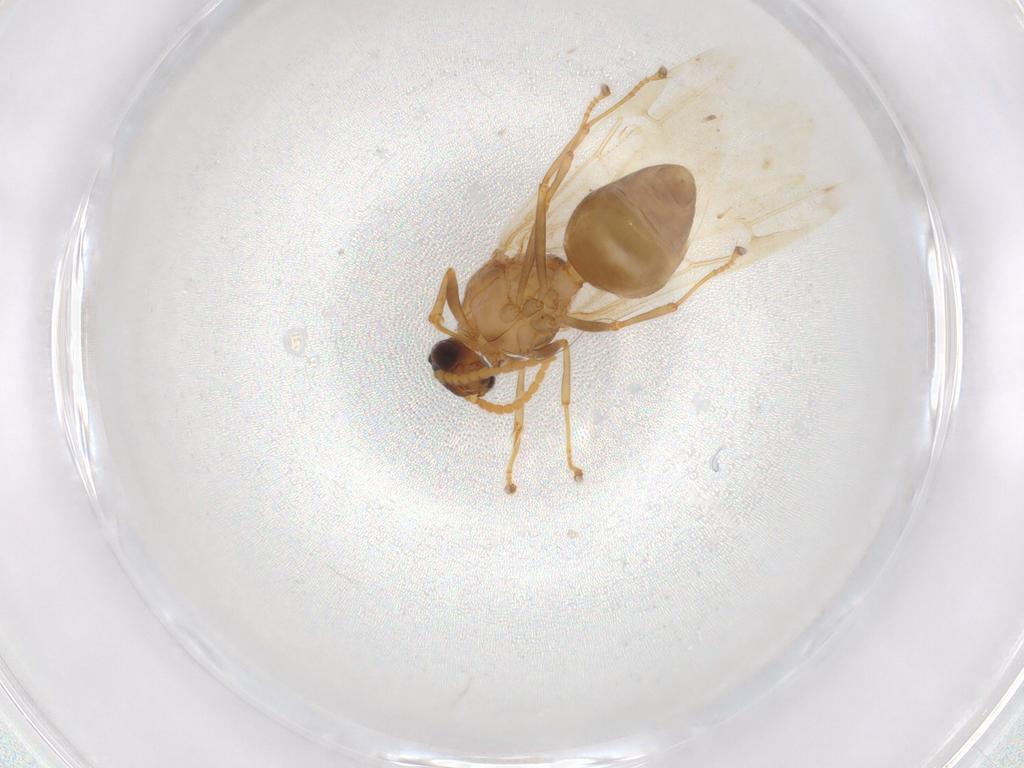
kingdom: Animalia
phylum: Arthropoda
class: Insecta
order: Hymenoptera
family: Formicidae
